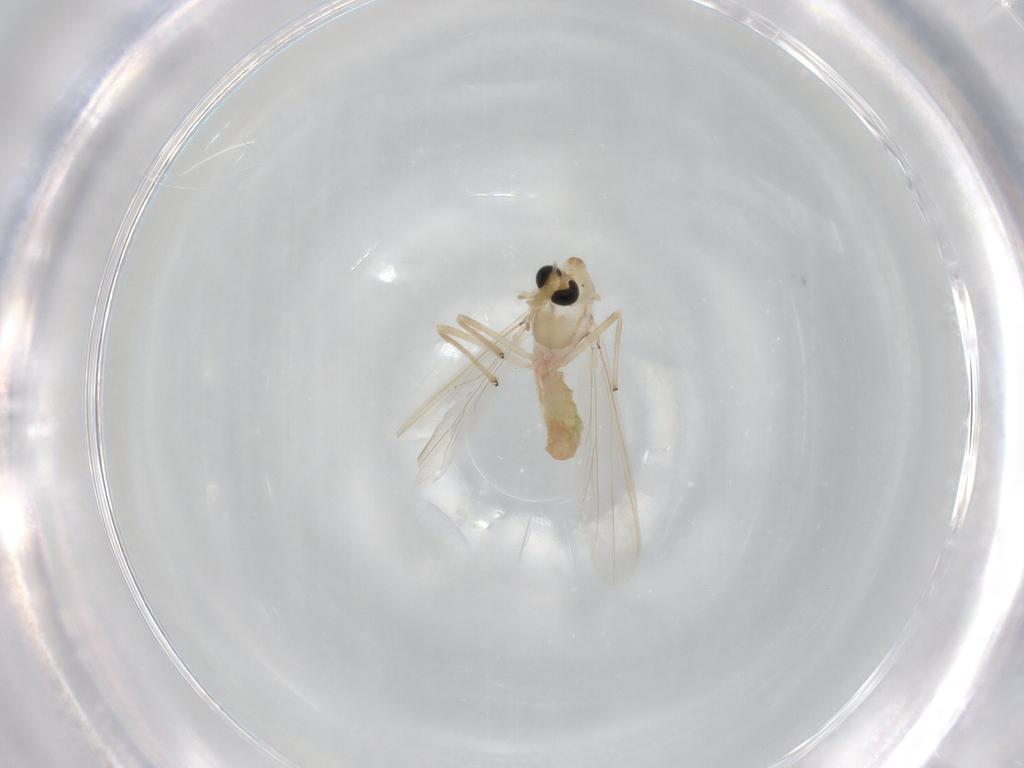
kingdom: Animalia
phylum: Arthropoda
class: Insecta
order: Diptera
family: Chironomidae
